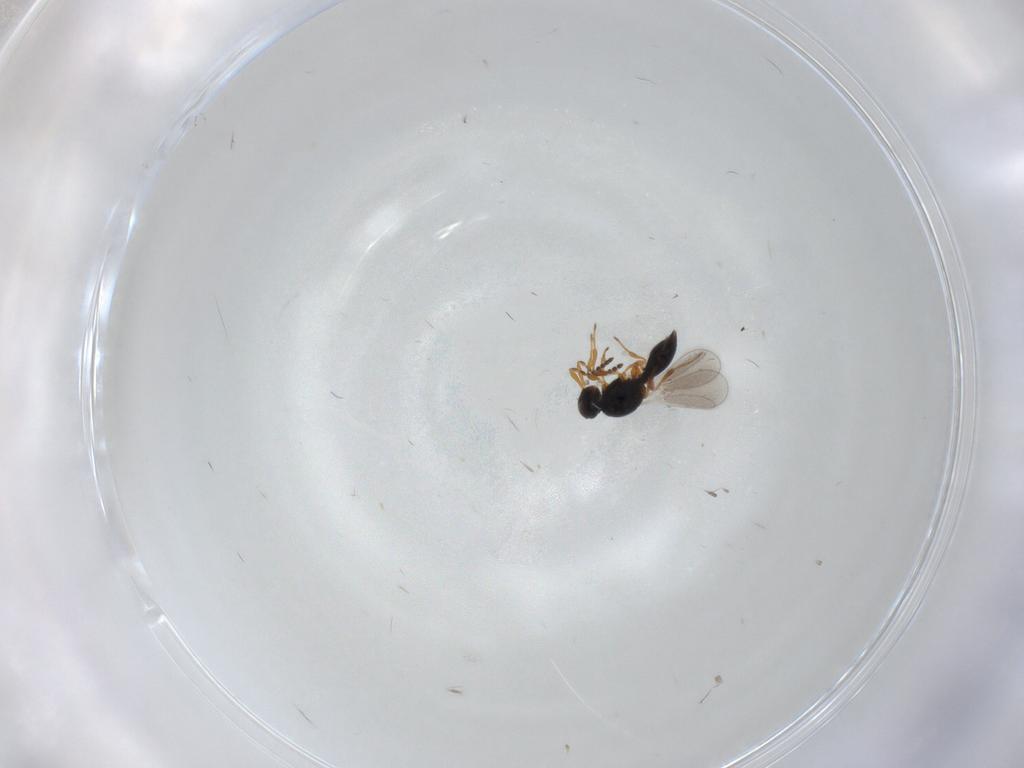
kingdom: Animalia
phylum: Arthropoda
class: Insecta
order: Hymenoptera
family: Platygastridae
